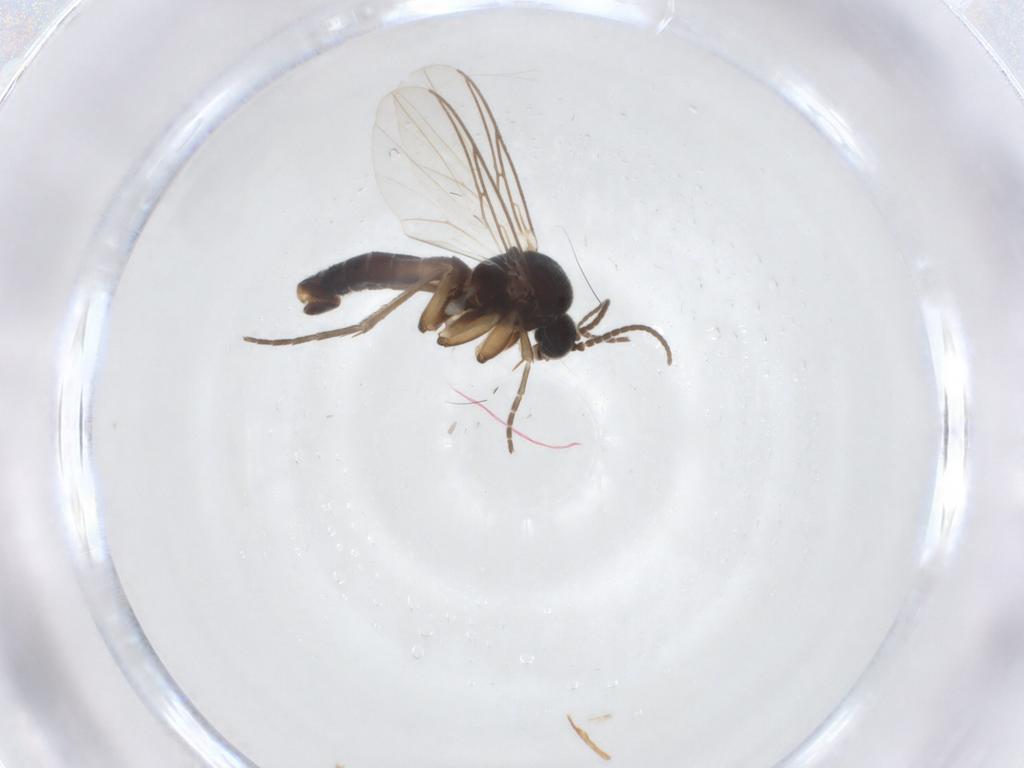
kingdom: Animalia
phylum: Arthropoda
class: Insecta
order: Diptera
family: Mycetophilidae
